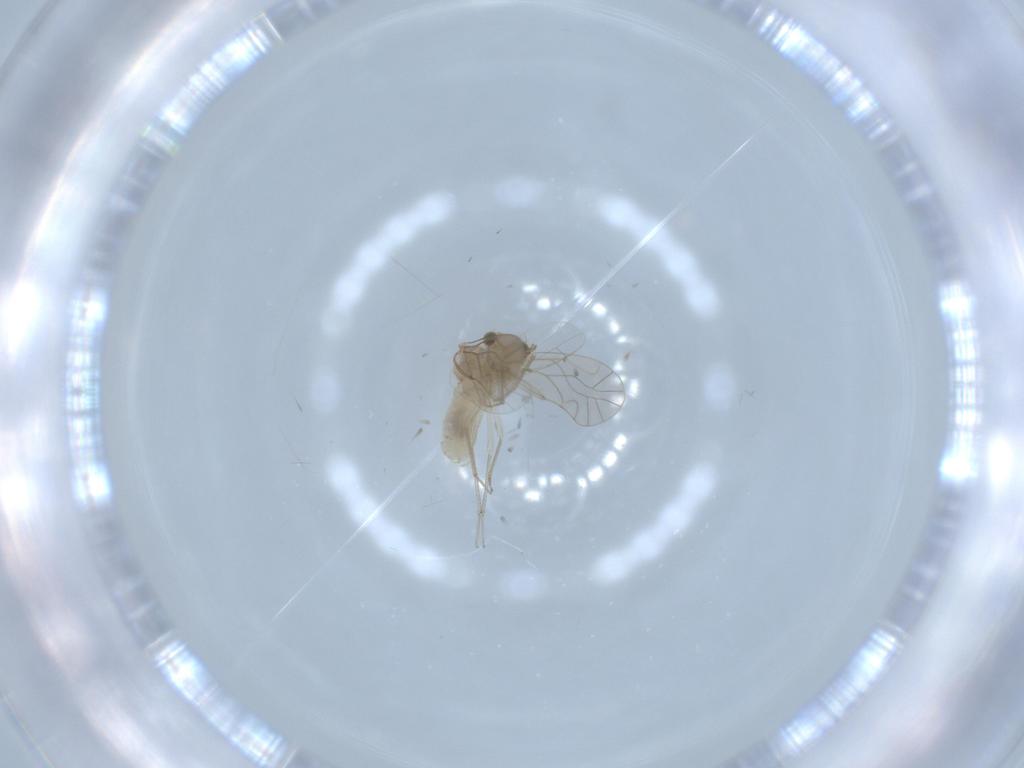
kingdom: Animalia
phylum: Arthropoda
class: Insecta
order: Psocodea
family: Lachesillidae
